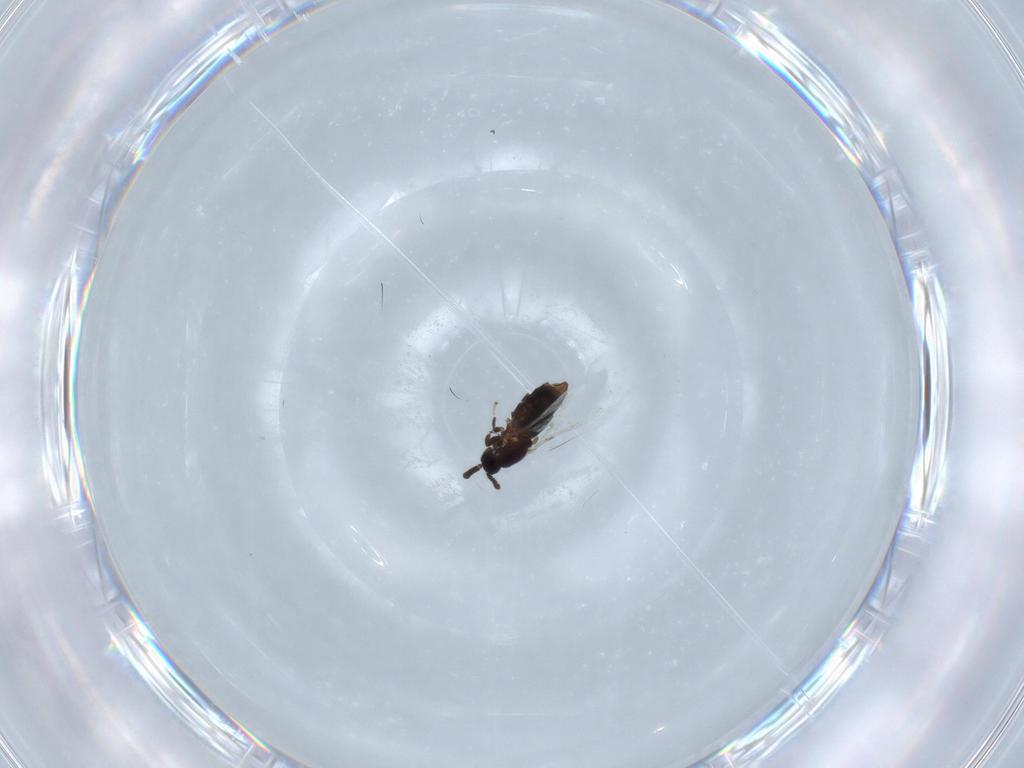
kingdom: Animalia
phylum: Arthropoda
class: Insecta
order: Diptera
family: Scatopsidae
